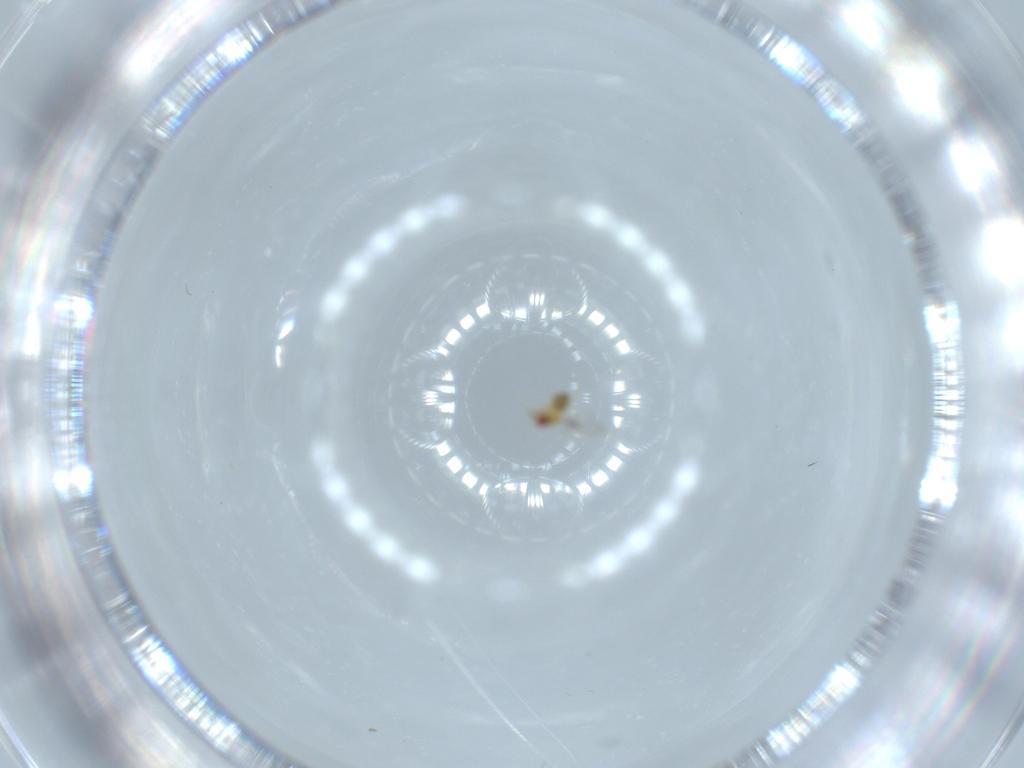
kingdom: Animalia
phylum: Arthropoda
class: Insecta
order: Hymenoptera
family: Trichogrammatidae
